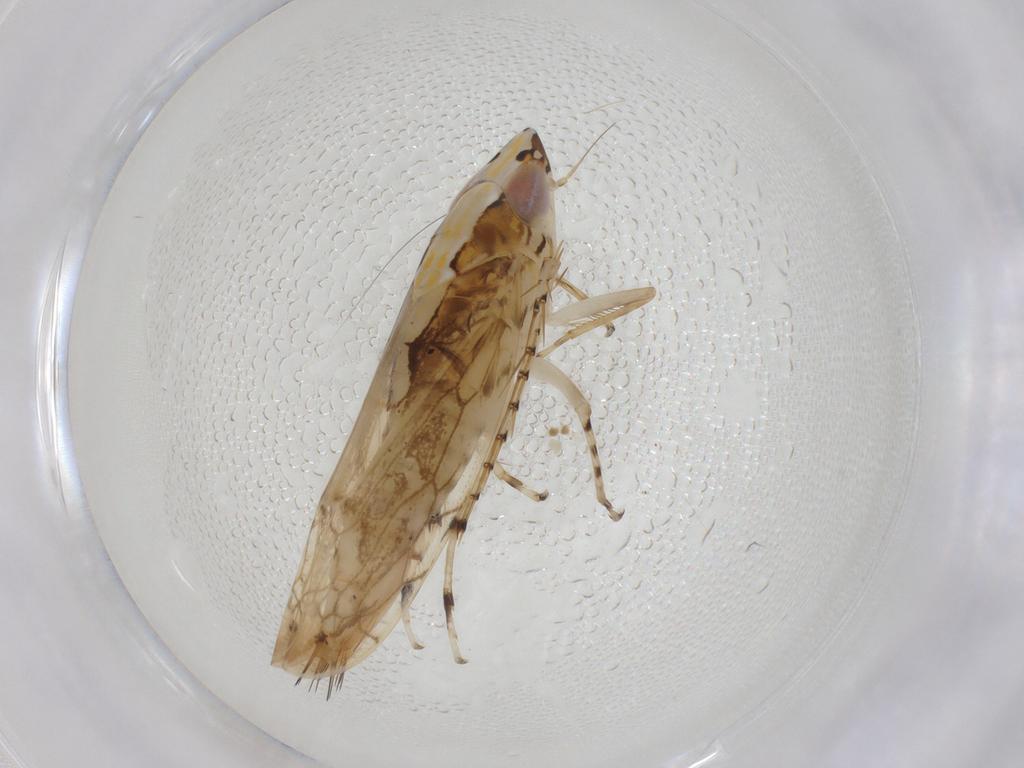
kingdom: Animalia
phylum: Arthropoda
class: Insecta
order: Hemiptera
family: Cicadellidae
